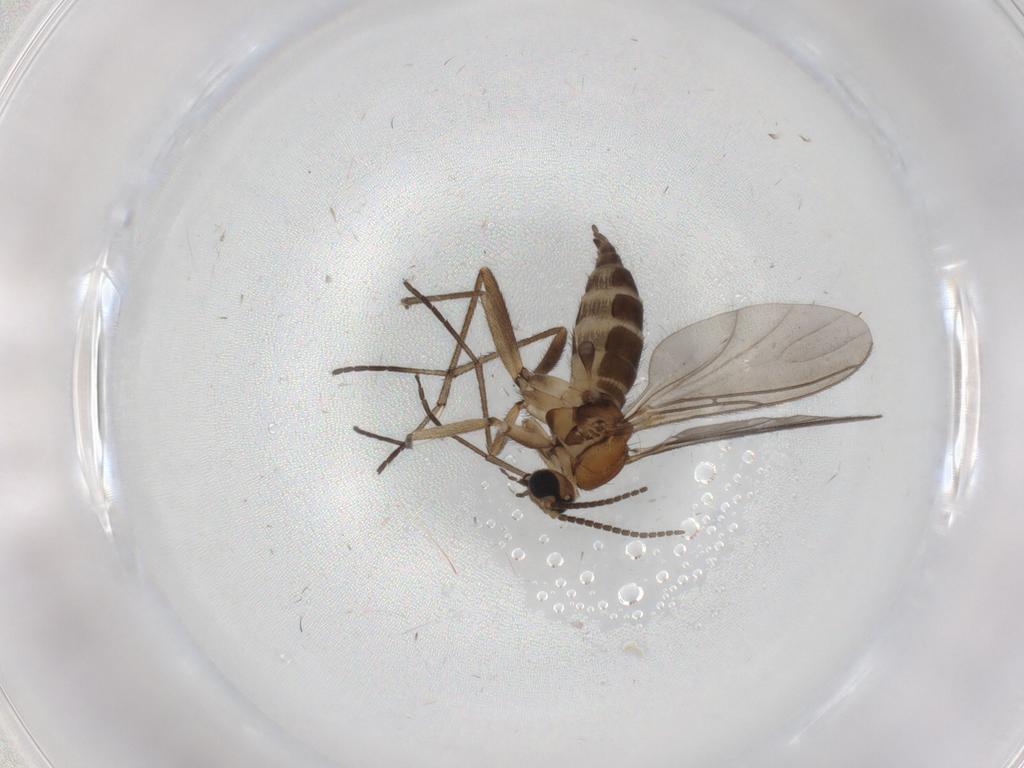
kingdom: Animalia
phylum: Arthropoda
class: Insecta
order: Diptera
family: Sciaridae
